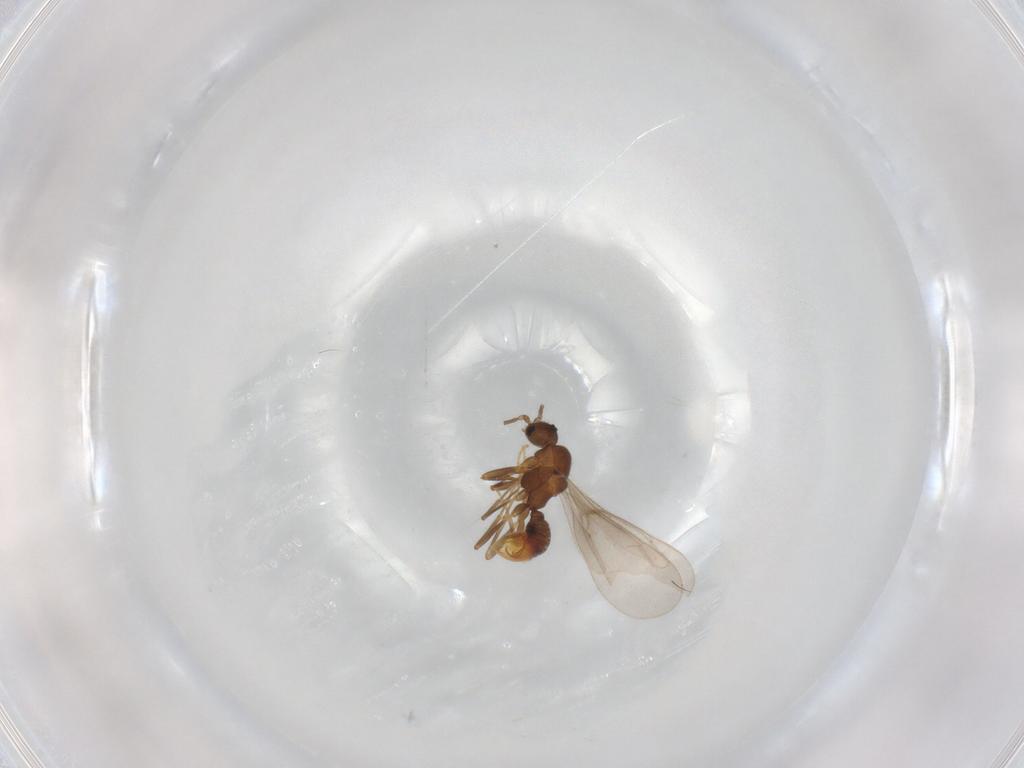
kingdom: Animalia
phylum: Arthropoda
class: Insecta
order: Hymenoptera
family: Formicidae
